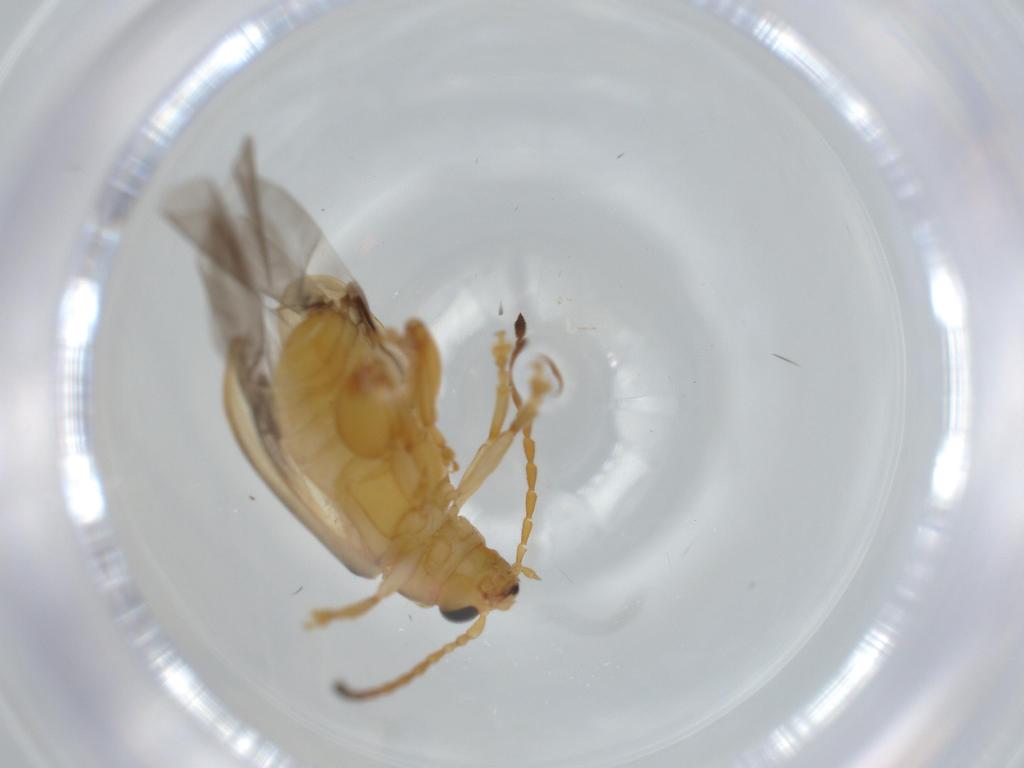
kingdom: Animalia
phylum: Arthropoda
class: Insecta
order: Coleoptera
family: Chrysomelidae
